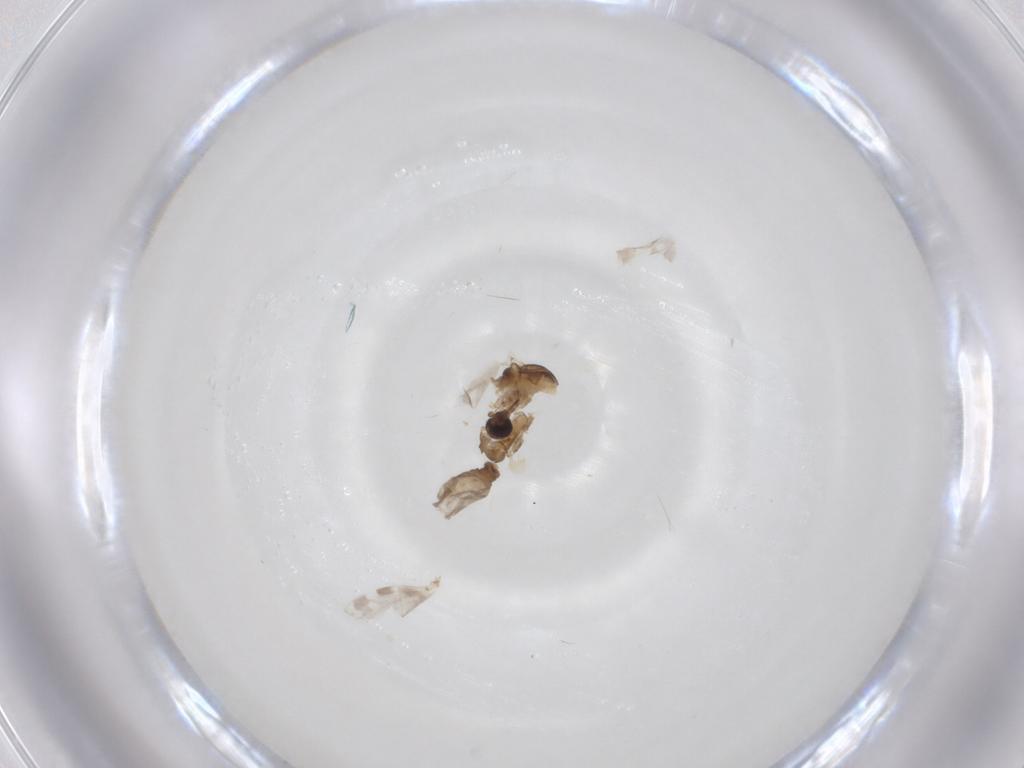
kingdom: Animalia
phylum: Arthropoda
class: Insecta
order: Diptera
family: Ceratopogonidae
